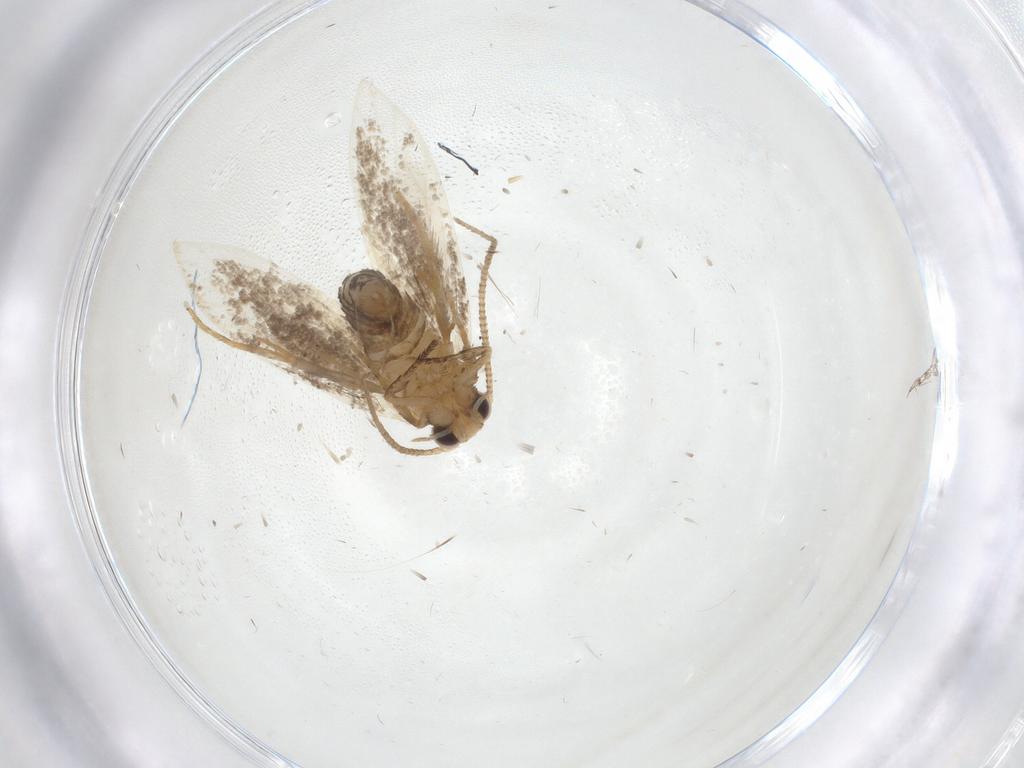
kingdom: Animalia
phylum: Arthropoda
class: Insecta
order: Lepidoptera
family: Tineidae
